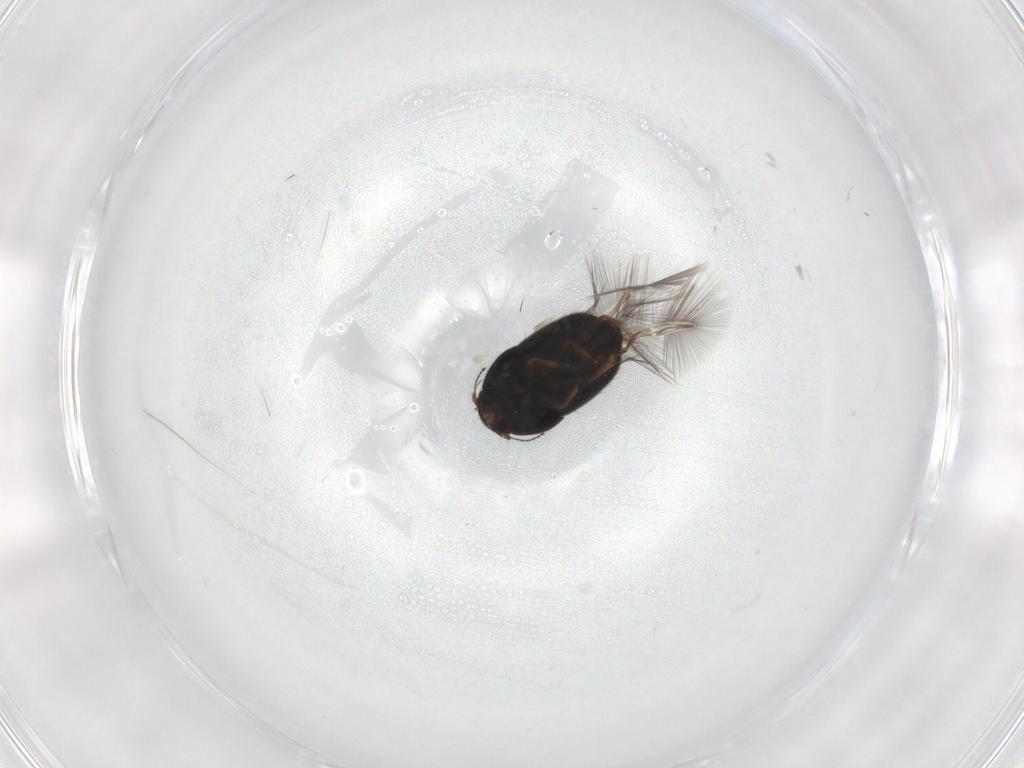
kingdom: Animalia
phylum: Arthropoda
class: Insecta
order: Coleoptera
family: Ptiliidae
